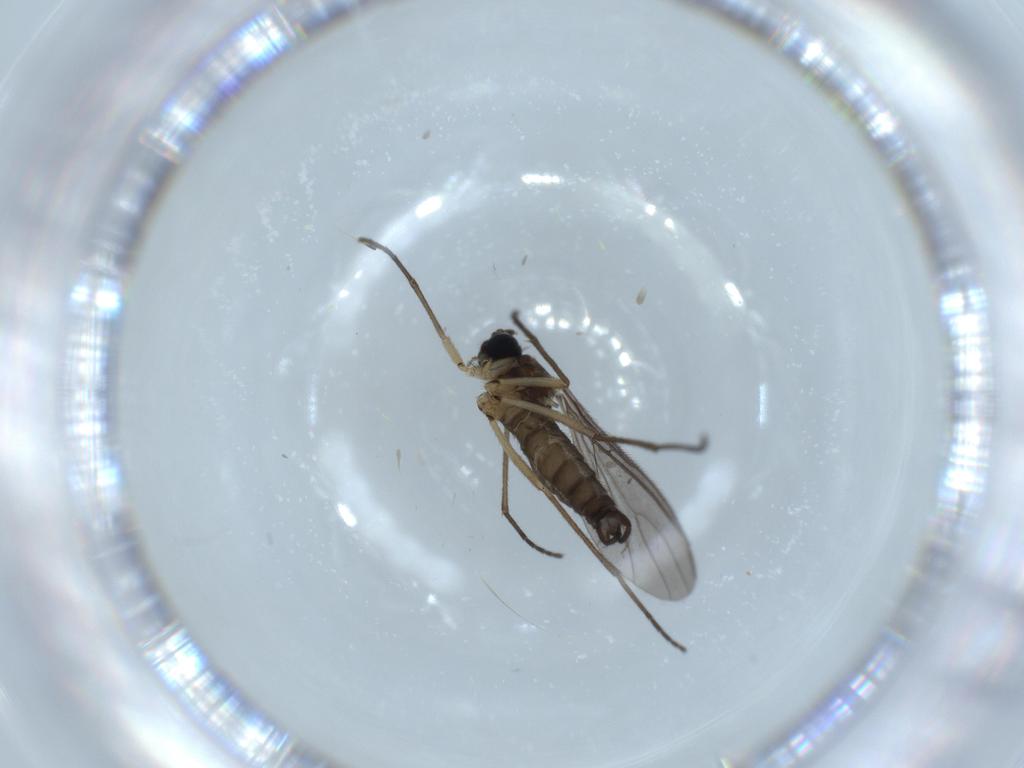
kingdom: Animalia
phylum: Arthropoda
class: Insecta
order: Diptera
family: Sciaridae
